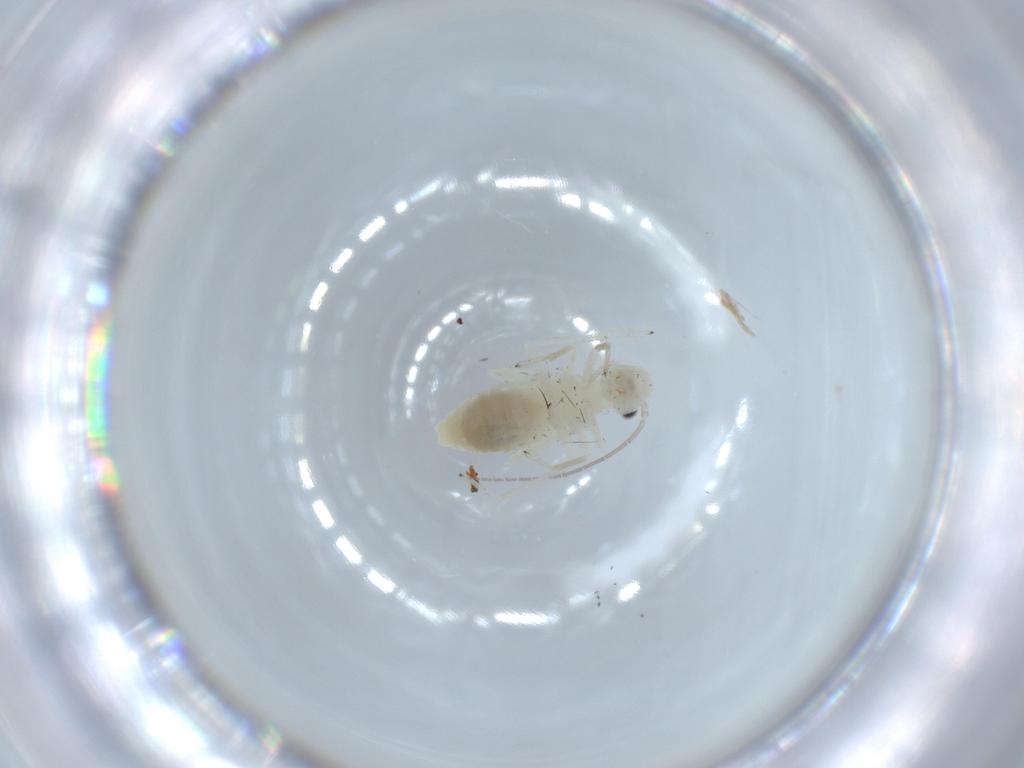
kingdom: Animalia
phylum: Arthropoda
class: Insecta
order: Psocodea
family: Caeciliusidae
